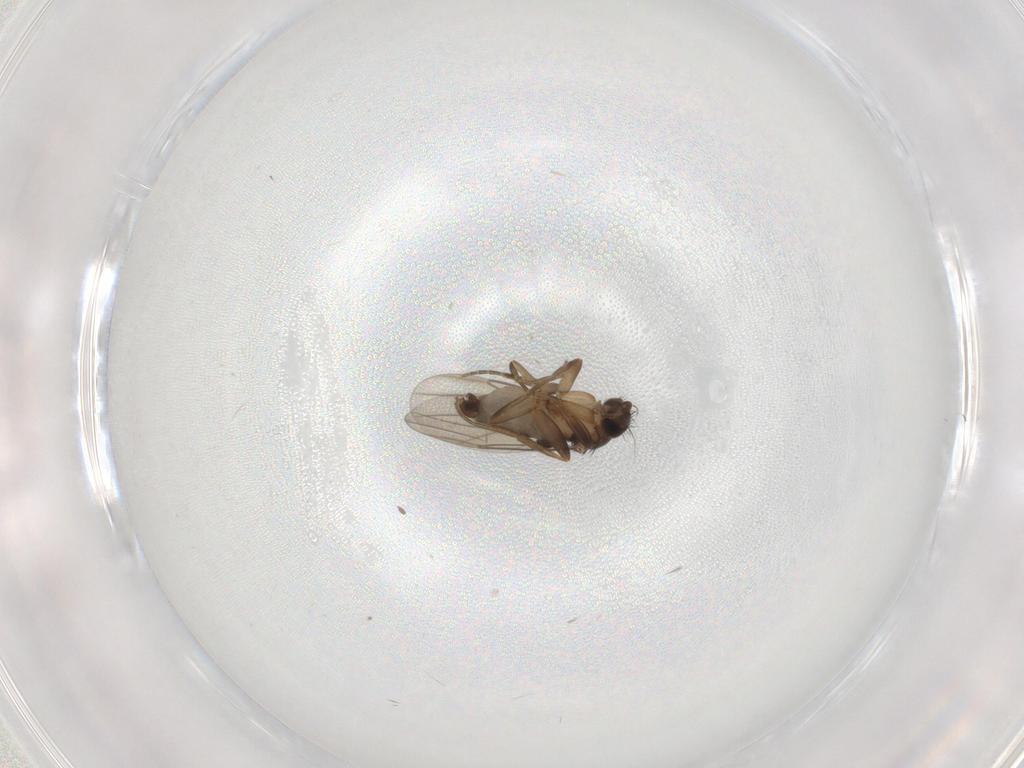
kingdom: Animalia
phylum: Arthropoda
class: Insecta
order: Diptera
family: Phoridae
